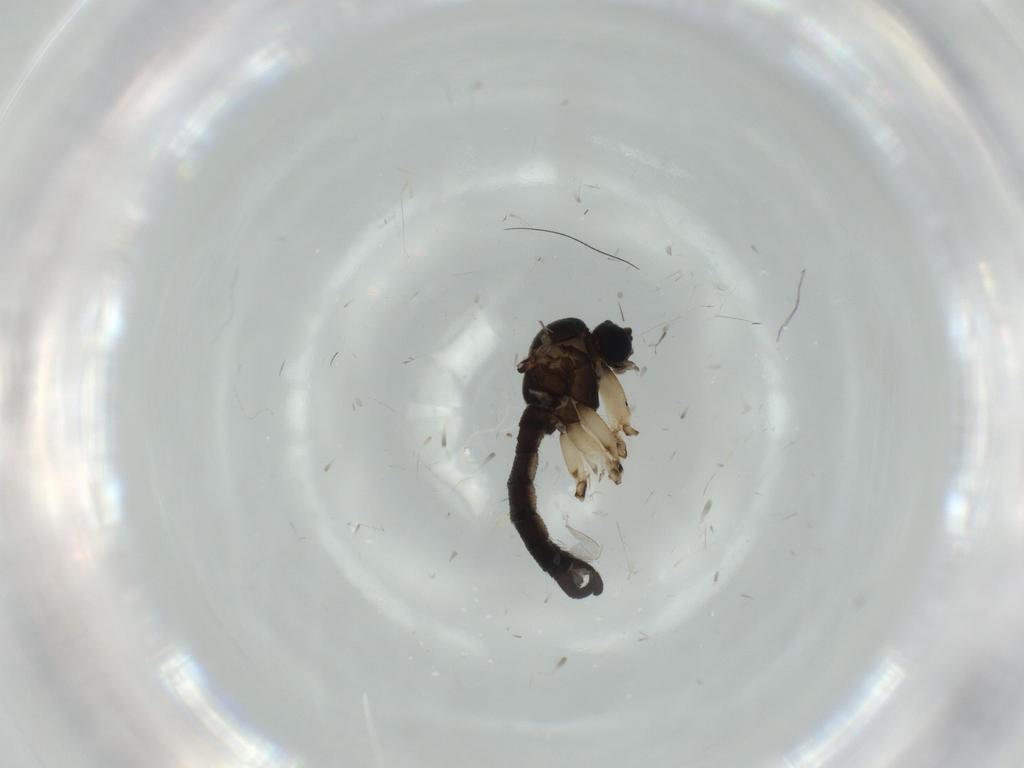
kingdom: Animalia
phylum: Arthropoda
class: Insecta
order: Diptera
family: Sciaridae
